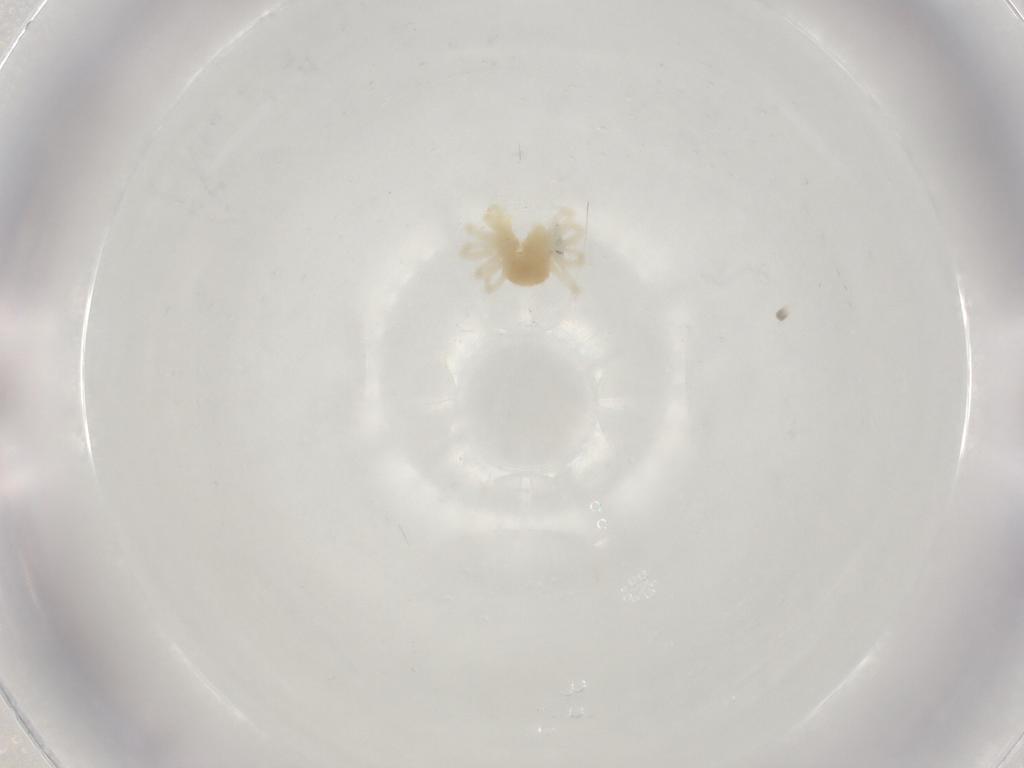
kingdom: Animalia
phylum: Arthropoda
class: Arachnida
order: Trombidiformes
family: Anystidae
